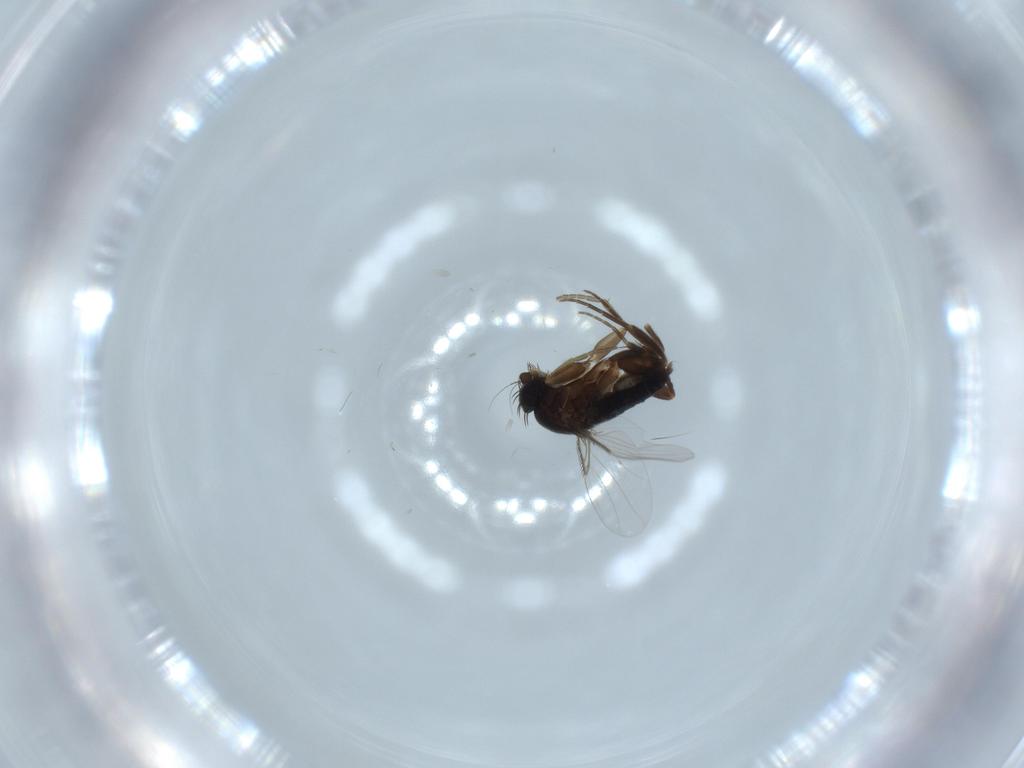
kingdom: Animalia
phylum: Arthropoda
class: Insecta
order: Diptera
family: Phoridae
